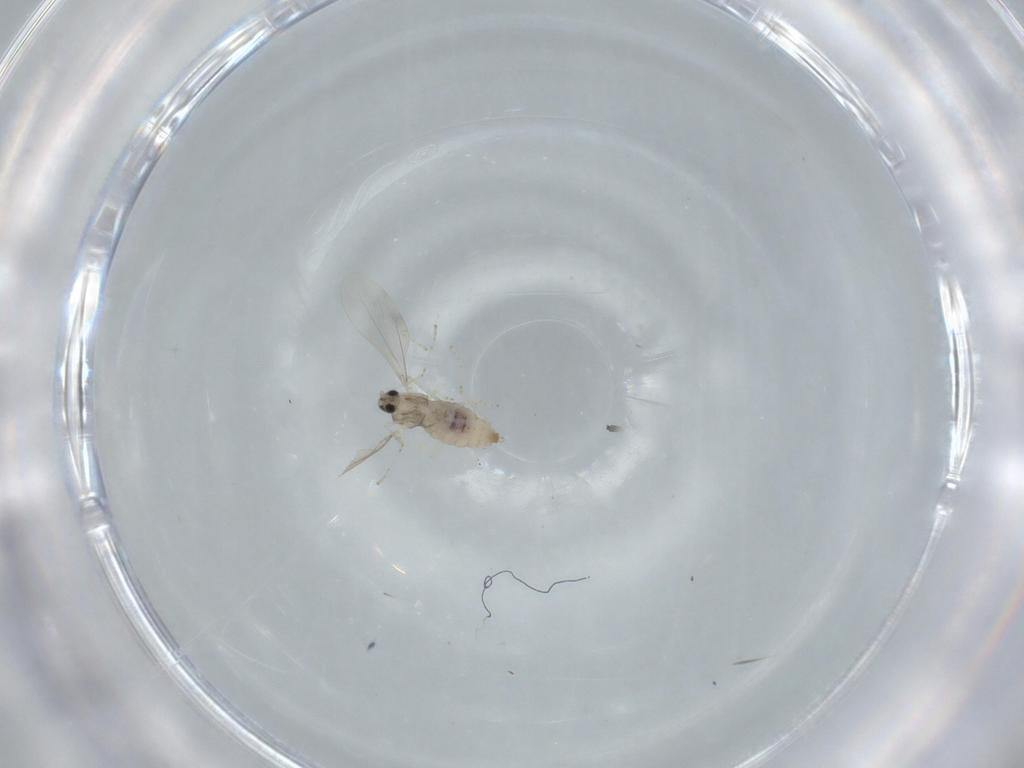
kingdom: Animalia
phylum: Arthropoda
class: Insecta
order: Diptera
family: Cecidomyiidae
